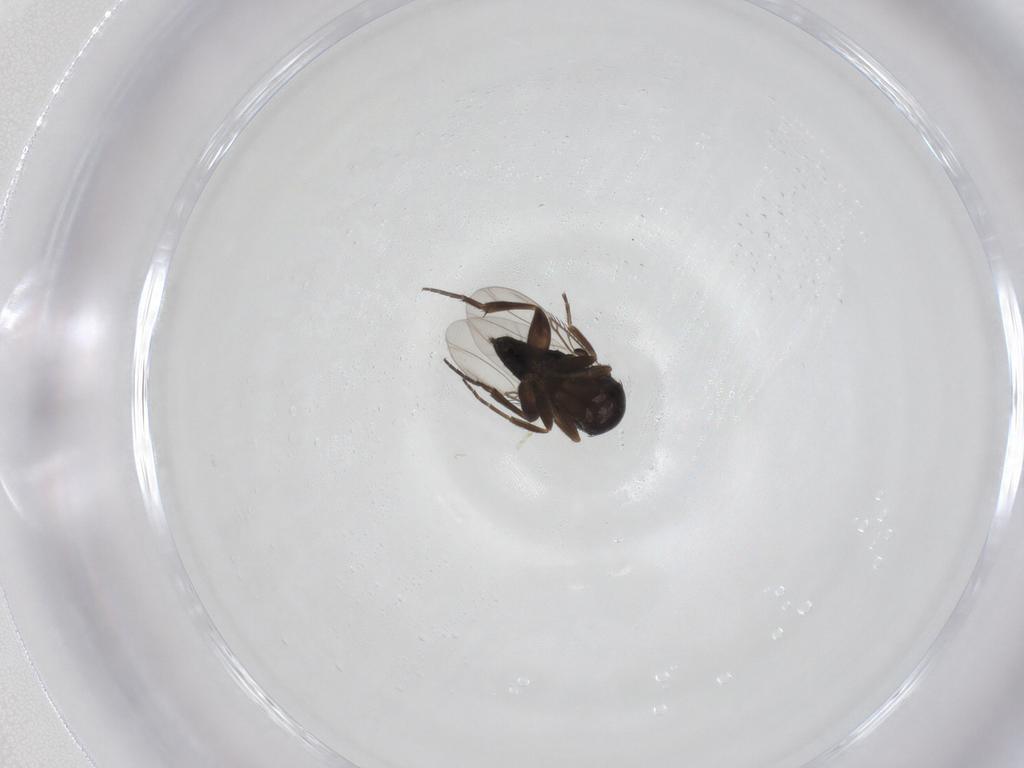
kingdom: Animalia
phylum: Arthropoda
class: Insecta
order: Diptera
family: Phoridae
